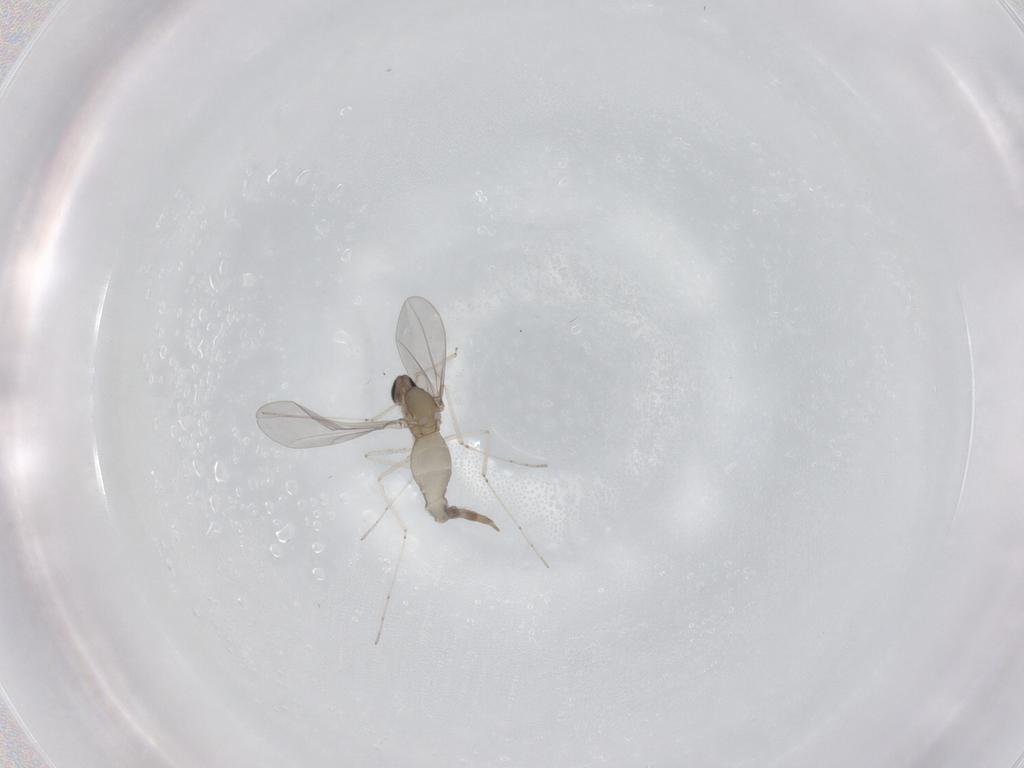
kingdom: Animalia
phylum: Arthropoda
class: Insecta
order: Diptera
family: Cecidomyiidae
